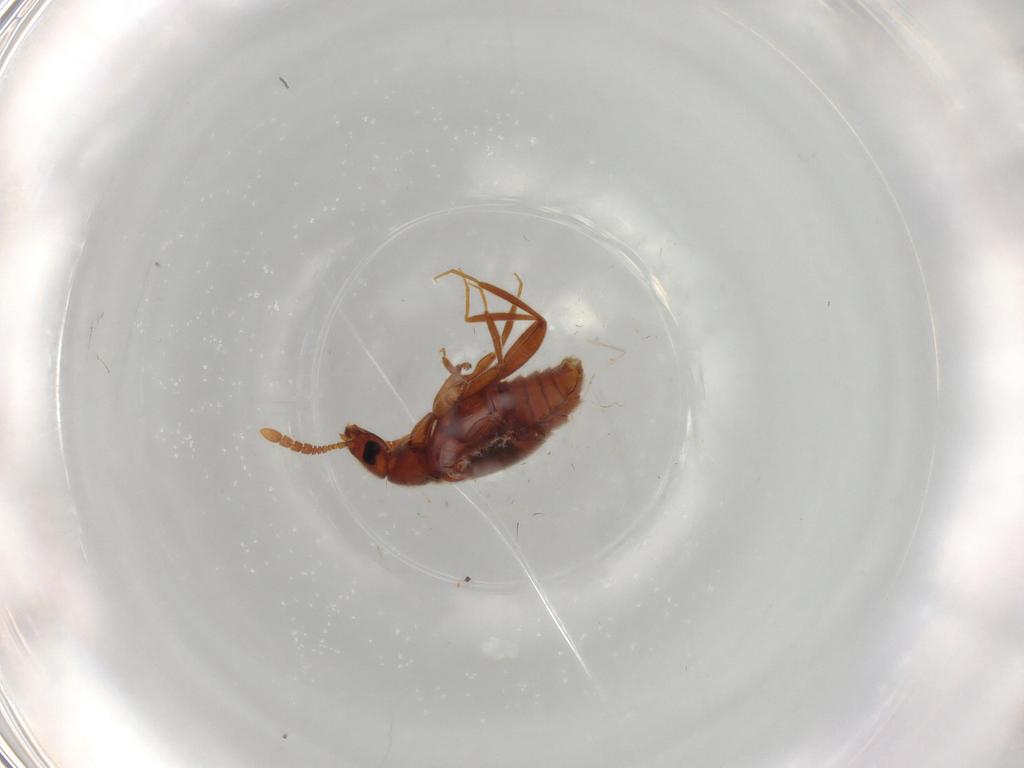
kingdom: Animalia
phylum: Arthropoda
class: Insecta
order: Coleoptera
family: Staphylinidae
